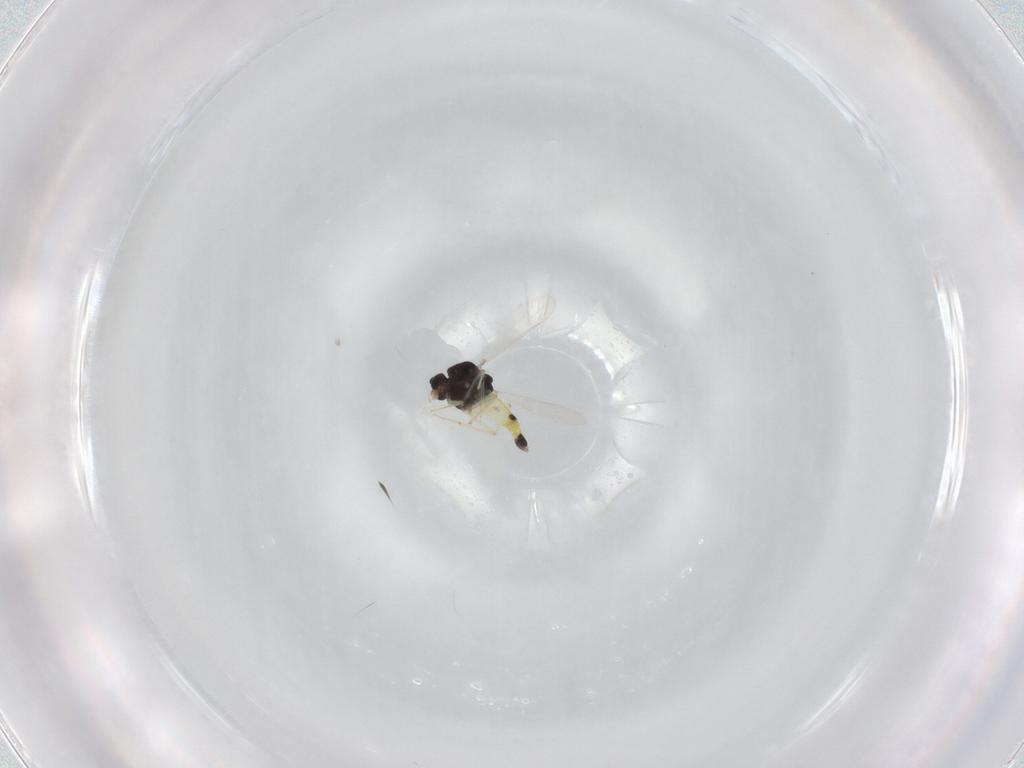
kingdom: Animalia
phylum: Arthropoda
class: Insecta
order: Diptera
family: Chironomidae
